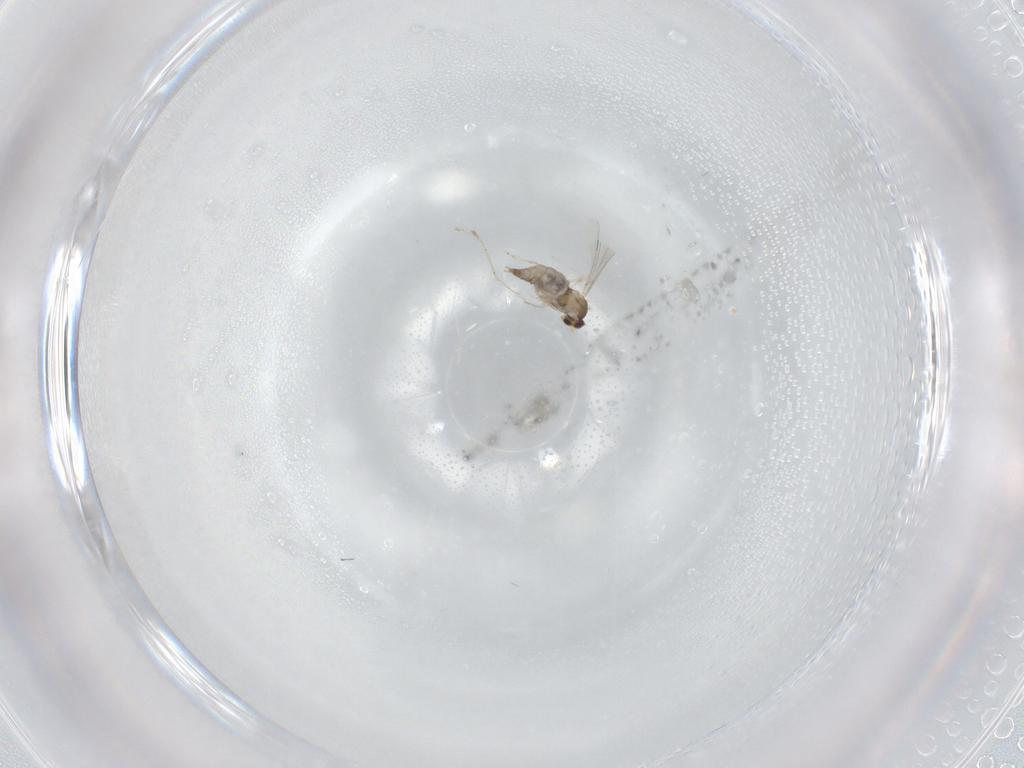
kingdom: Animalia
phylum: Arthropoda
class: Insecta
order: Diptera
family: Cecidomyiidae
